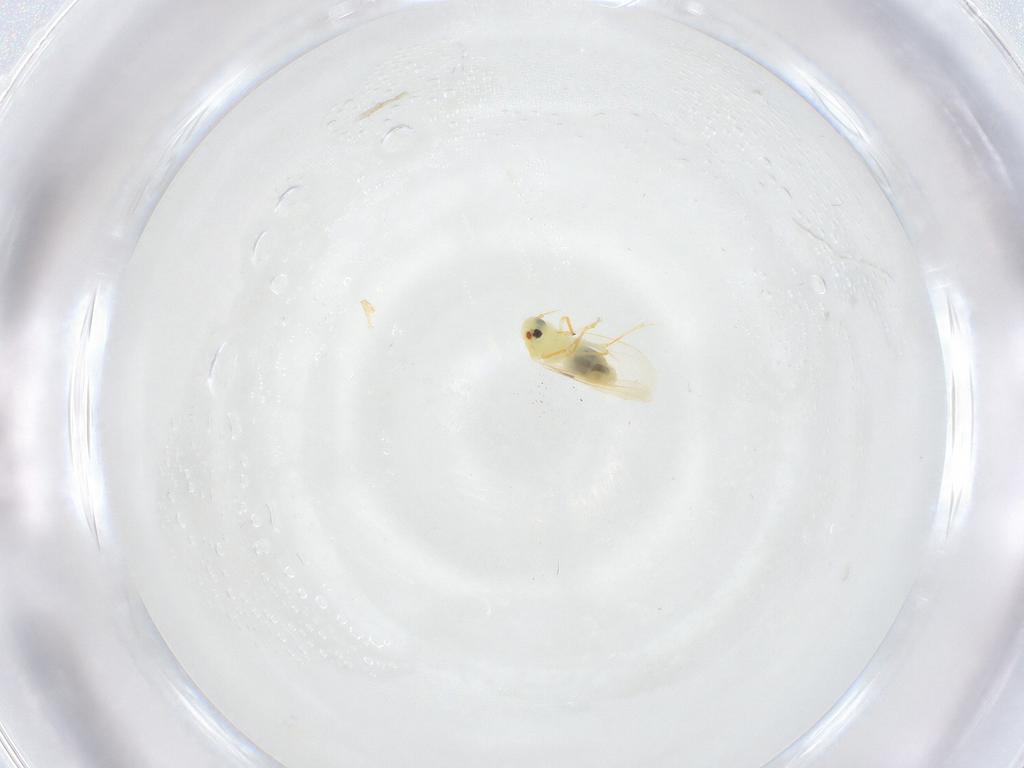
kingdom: Animalia
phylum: Arthropoda
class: Insecta
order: Hemiptera
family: Aleyrodidae
